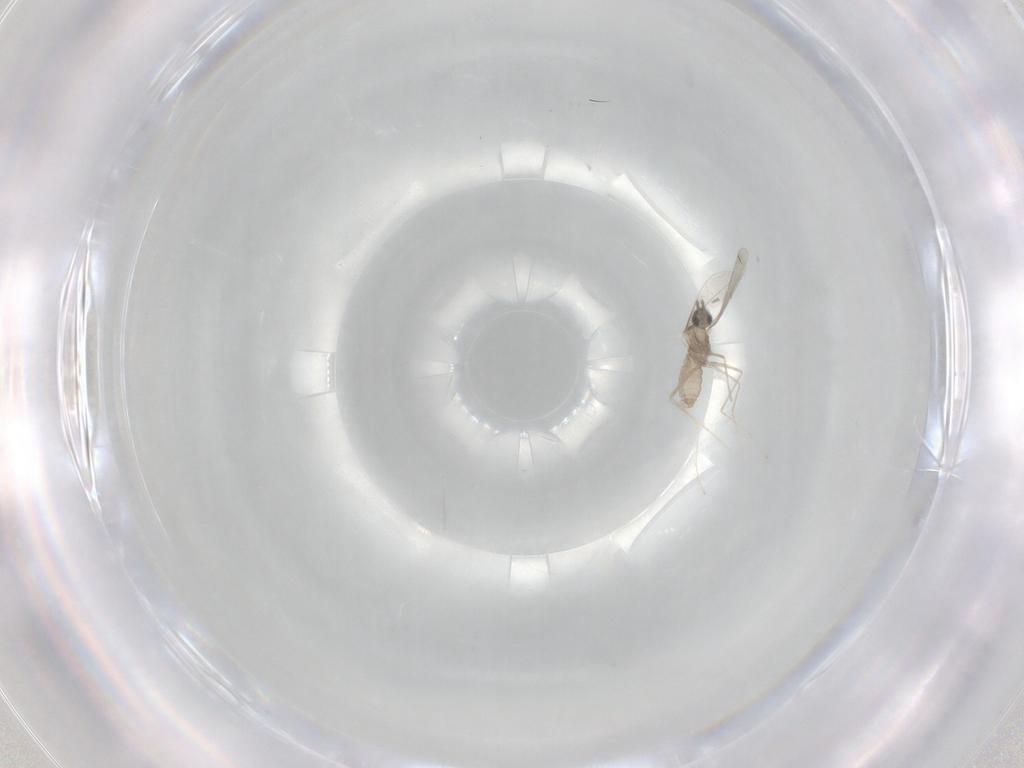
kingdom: Animalia
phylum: Arthropoda
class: Insecta
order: Diptera
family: Cecidomyiidae
